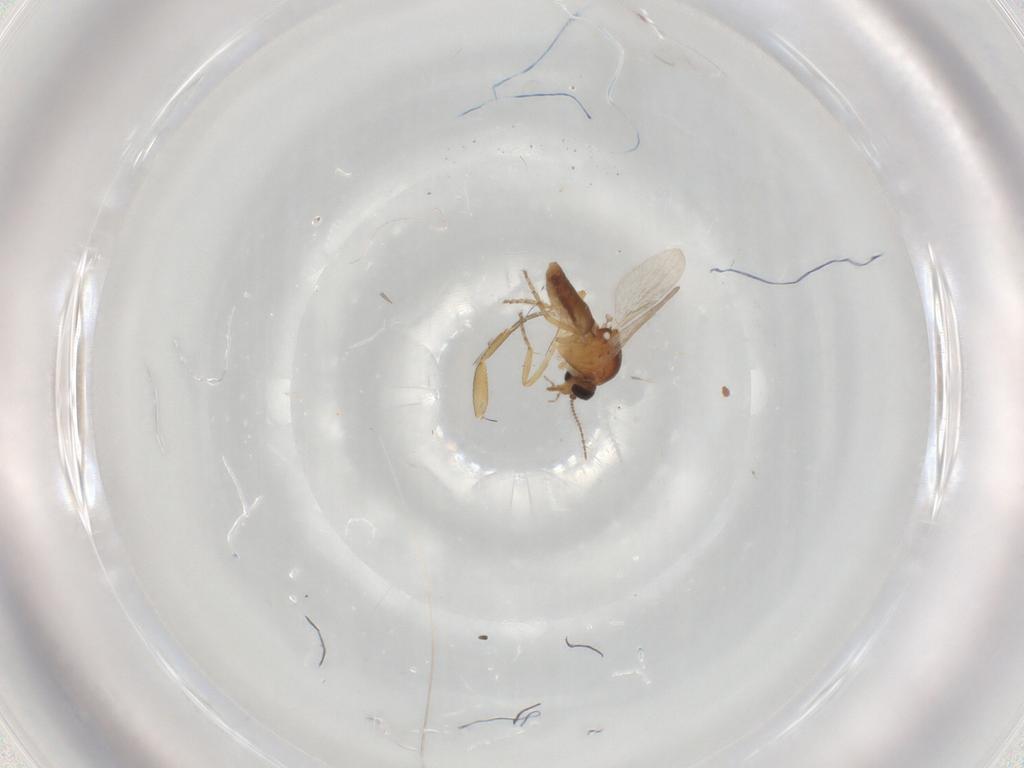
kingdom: Animalia
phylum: Arthropoda
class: Insecta
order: Diptera
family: Ceratopogonidae
